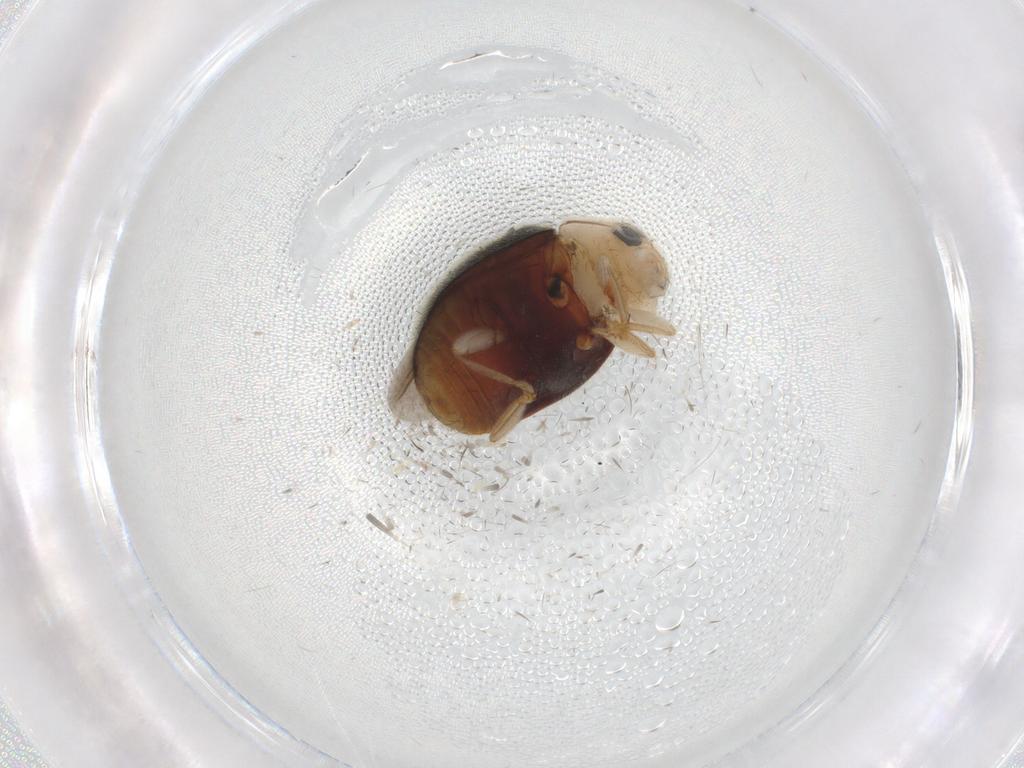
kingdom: Animalia
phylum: Arthropoda
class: Insecta
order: Coleoptera
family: Coccinellidae
